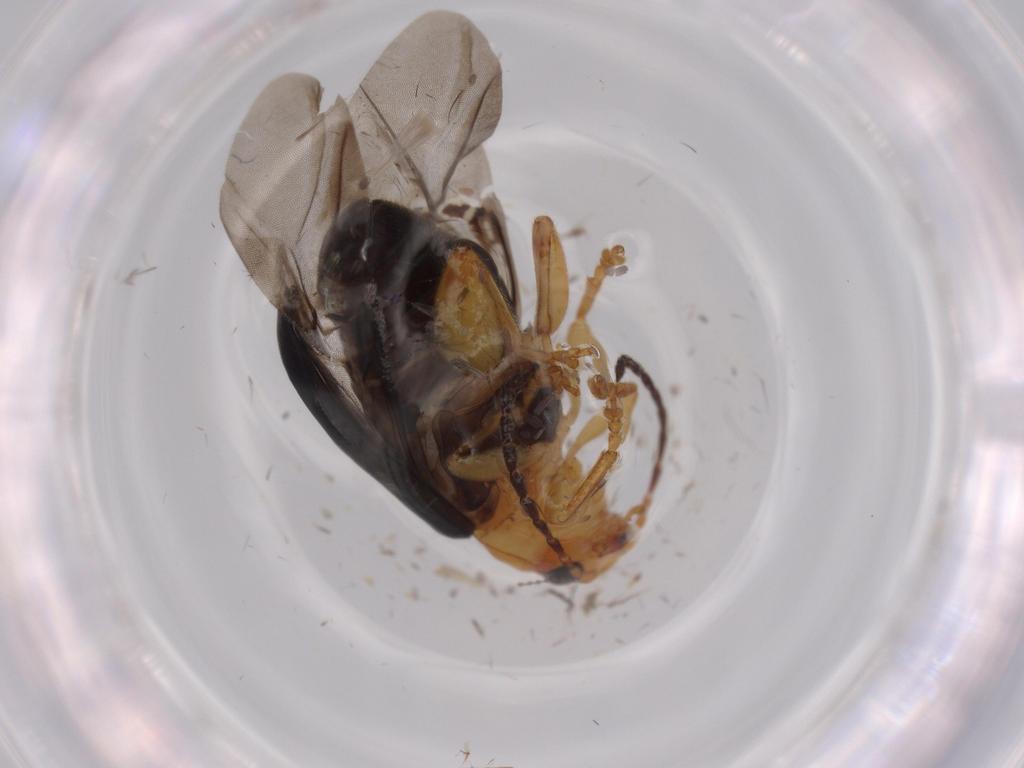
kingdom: Animalia
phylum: Arthropoda
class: Insecta
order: Coleoptera
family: Chrysomelidae
